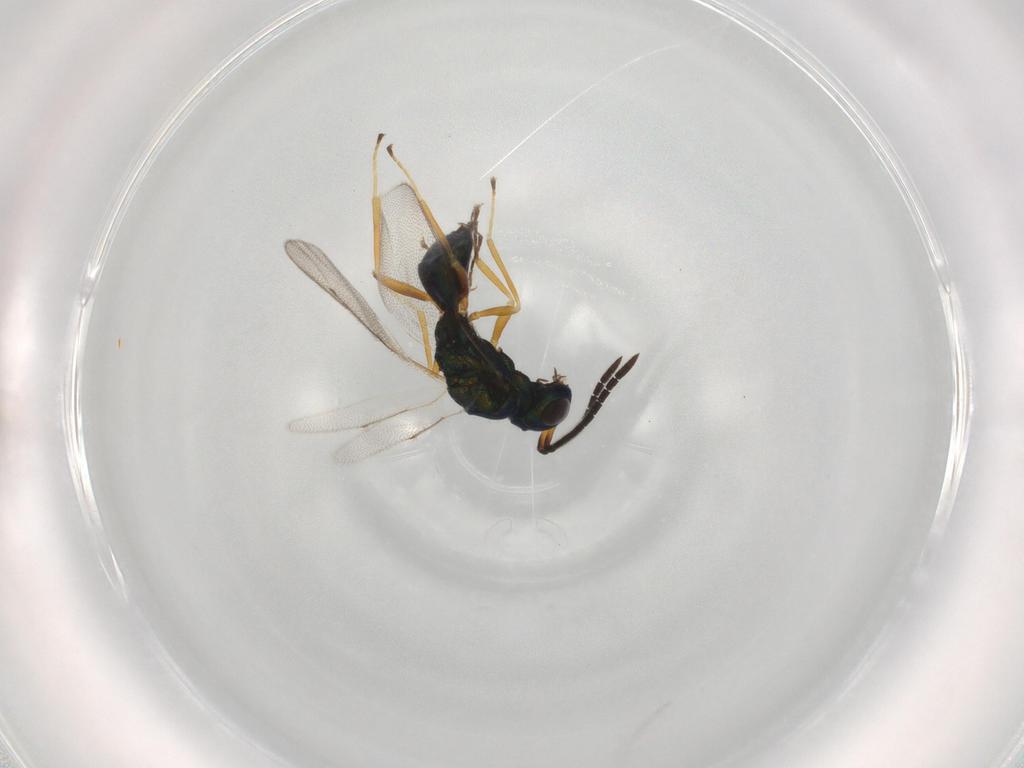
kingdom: Animalia
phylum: Arthropoda
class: Insecta
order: Hymenoptera
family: Pteromalidae
